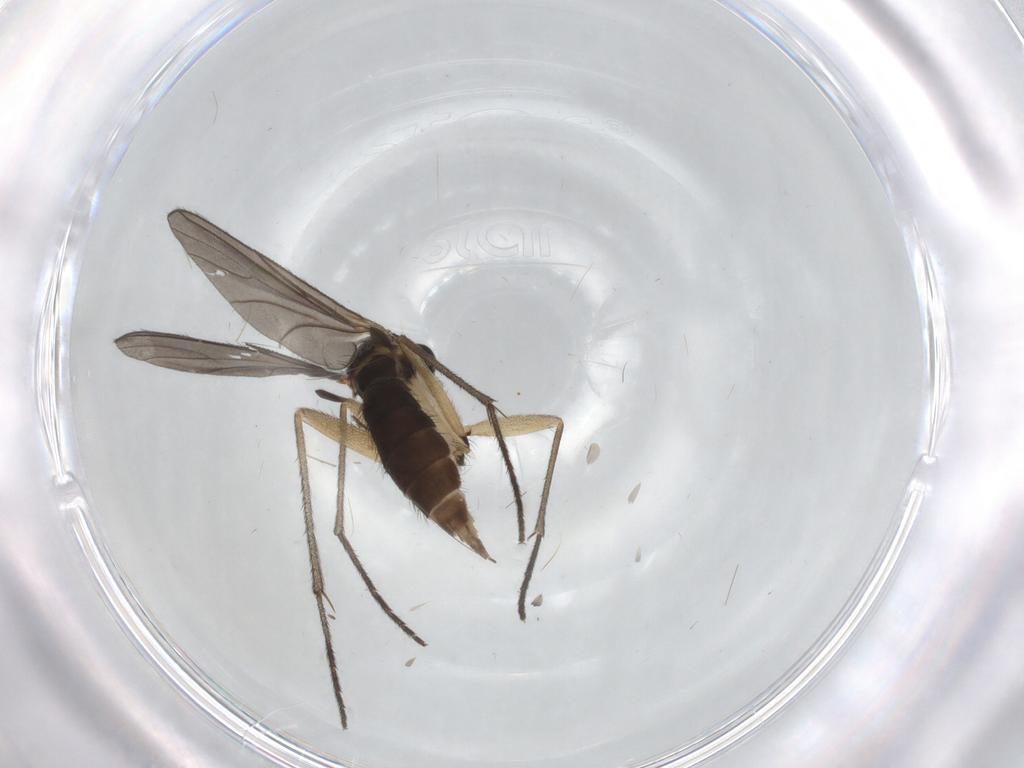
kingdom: Animalia
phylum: Arthropoda
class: Insecta
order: Diptera
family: Sciaridae
